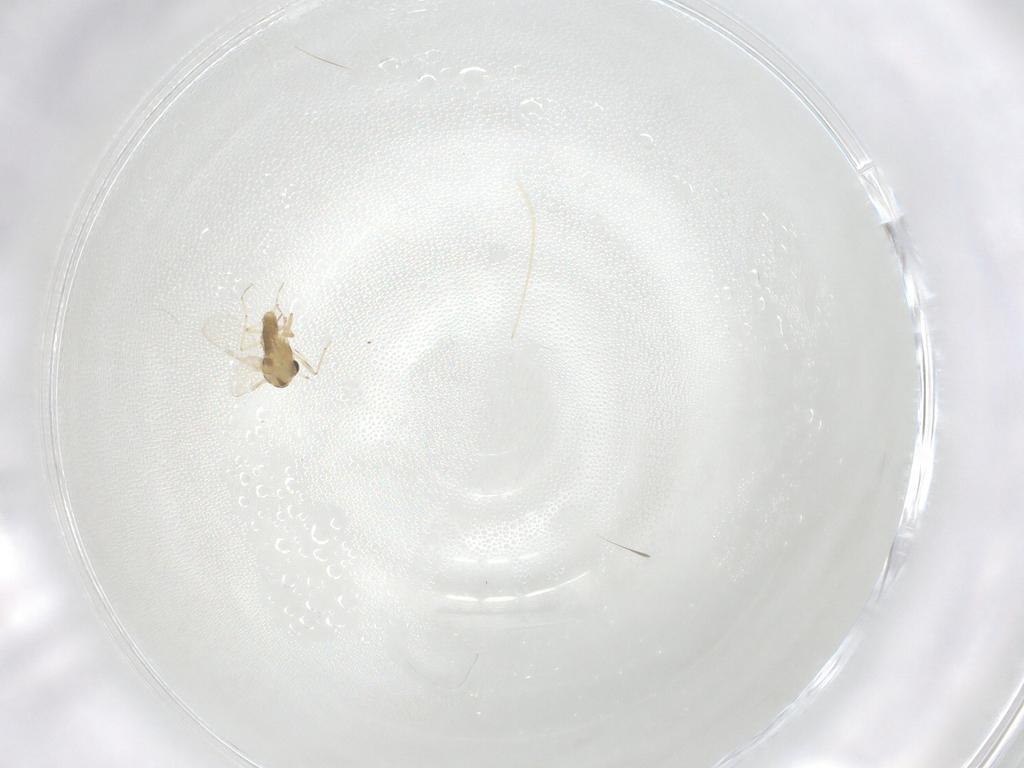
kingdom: Animalia
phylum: Arthropoda
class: Insecta
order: Diptera
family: Chironomidae
